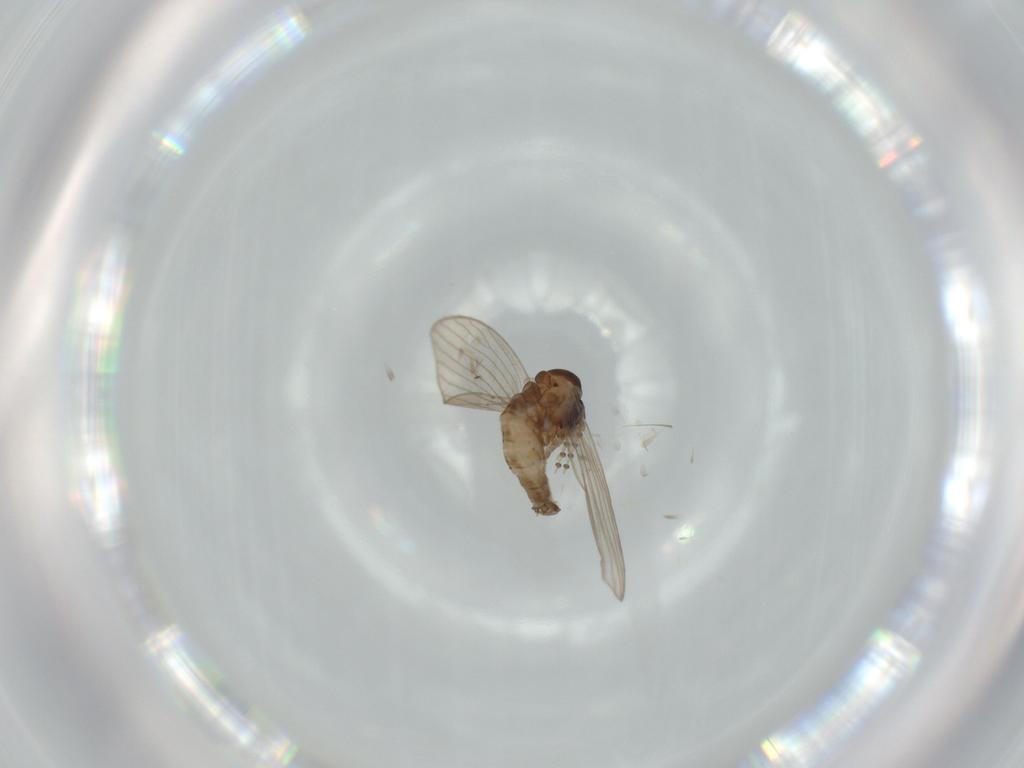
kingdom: Animalia
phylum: Arthropoda
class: Insecta
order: Diptera
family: Psychodidae
